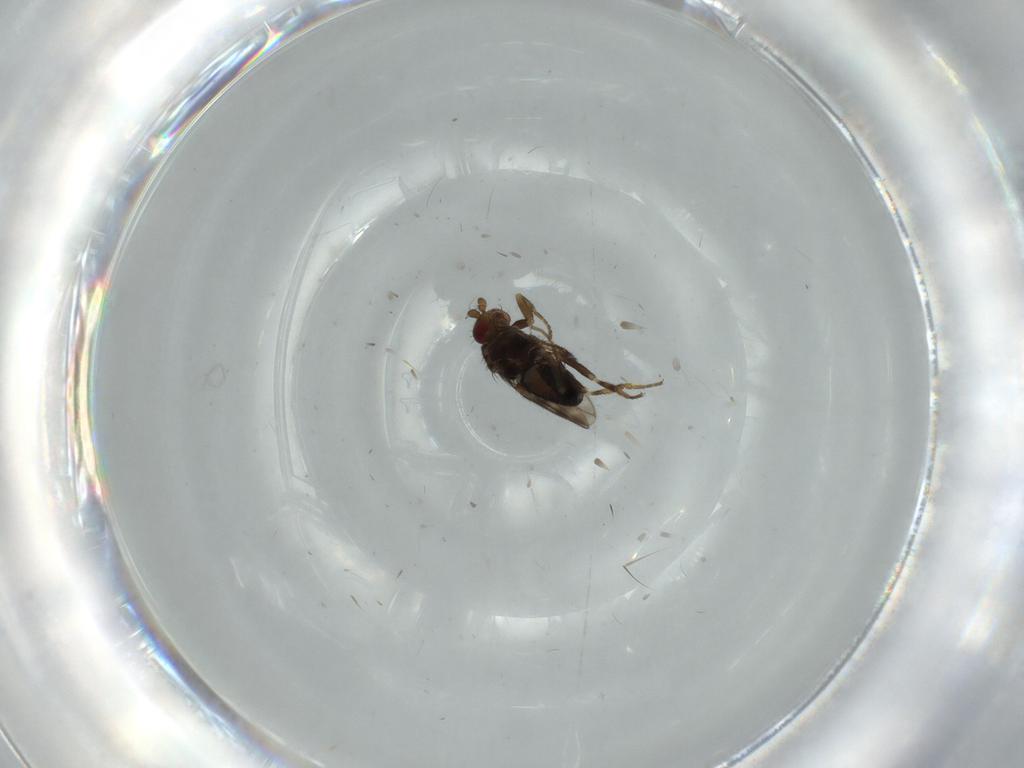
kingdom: Animalia
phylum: Arthropoda
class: Insecta
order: Diptera
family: Sphaeroceridae
